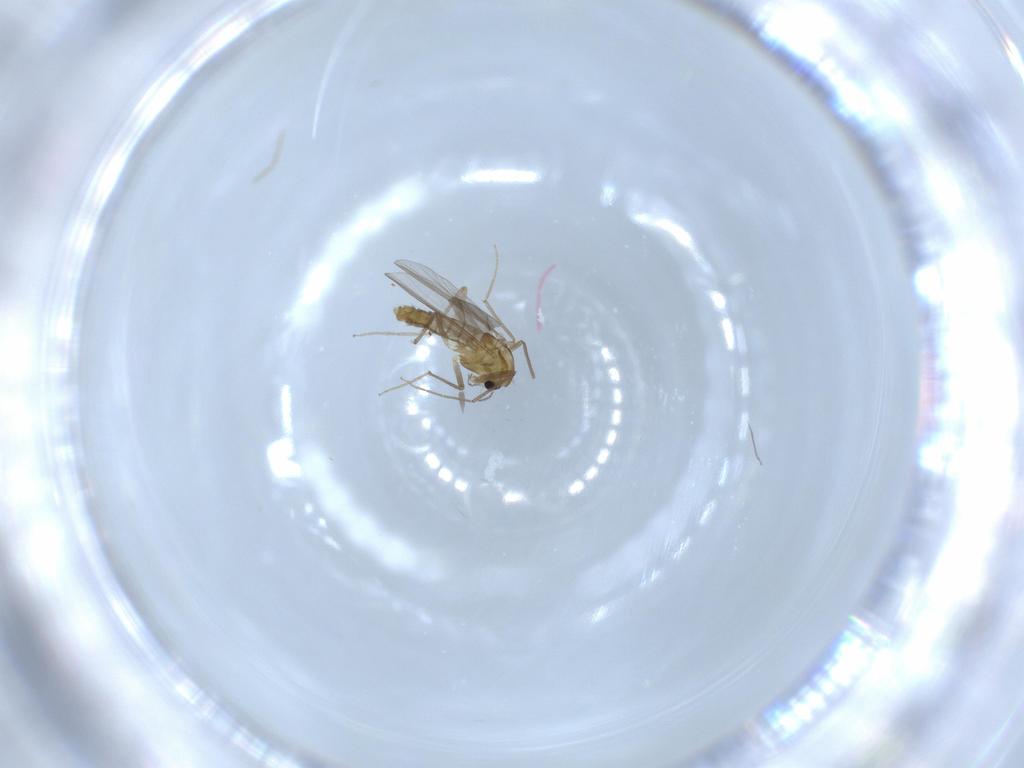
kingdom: Animalia
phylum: Arthropoda
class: Insecta
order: Diptera
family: Chironomidae
